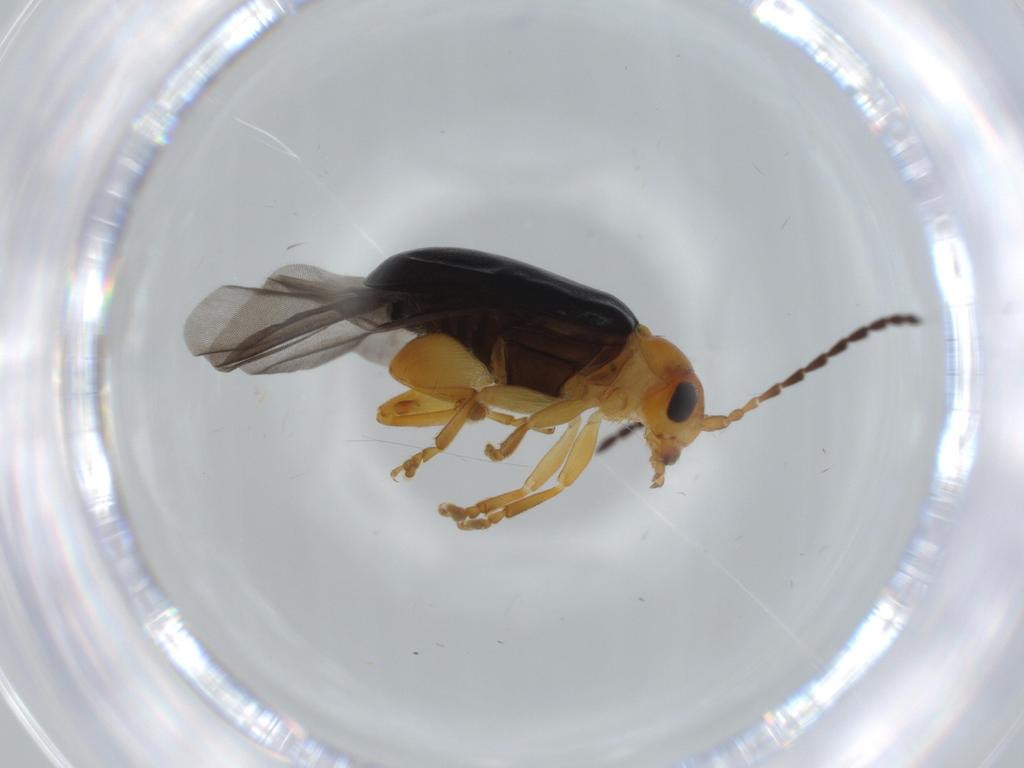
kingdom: Animalia
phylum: Arthropoda
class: Insecta
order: Coleoptera
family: Chrysomelidae
